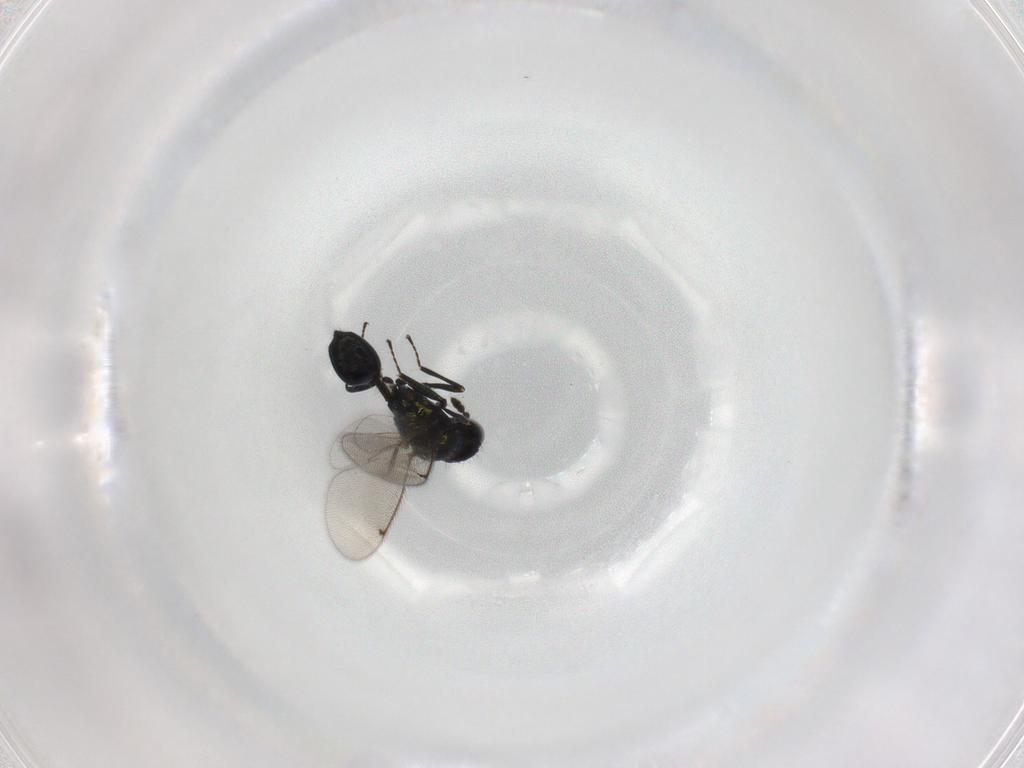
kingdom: Animalia
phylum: Arthropoda
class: Insecta
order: Hymenoptera
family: Eulophidae
